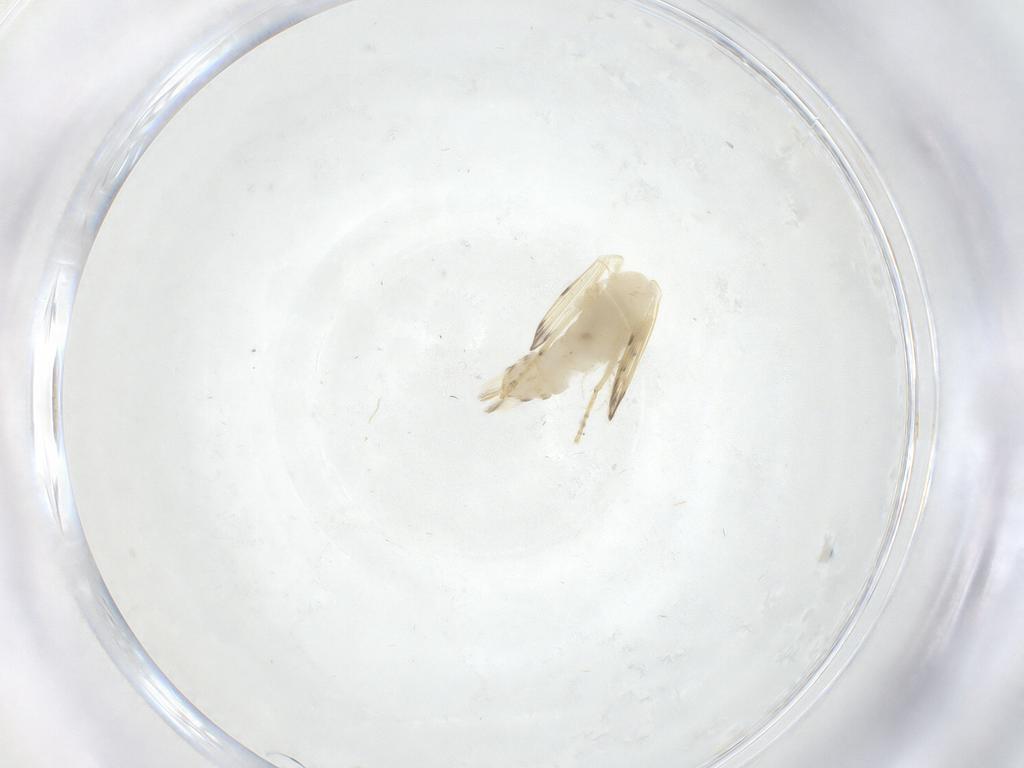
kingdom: Animalia
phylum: Arthropoda
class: Insecta
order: Diptera
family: Psychodidae
